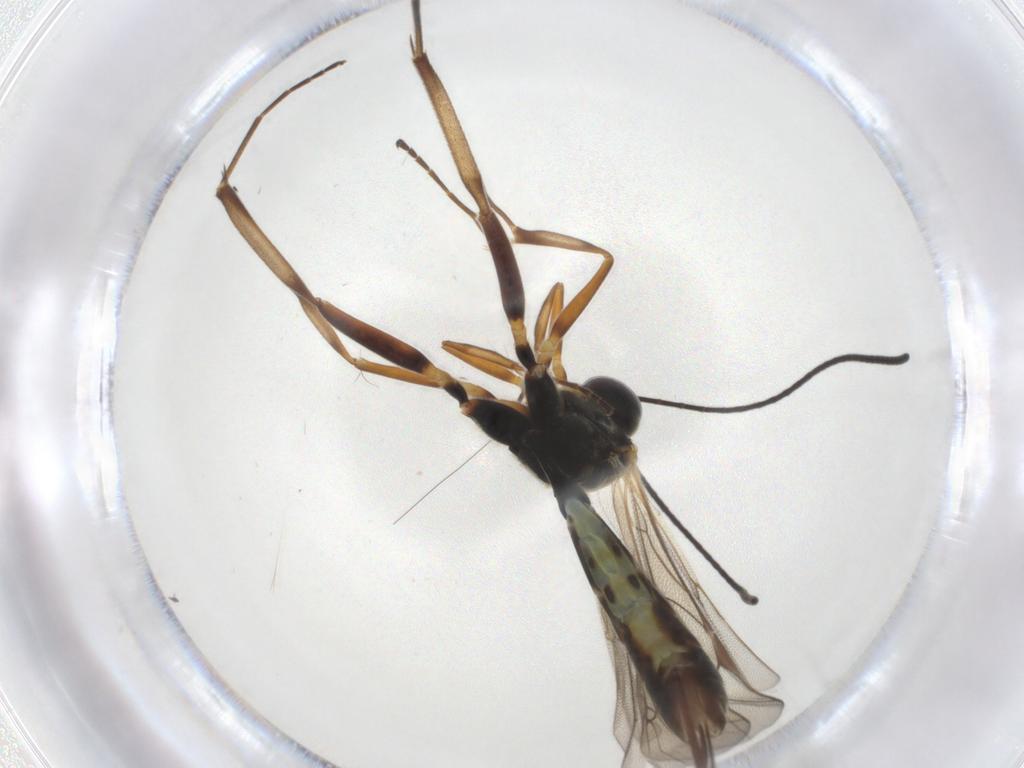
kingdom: Animalia
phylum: Arthropoda
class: Insecta
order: Hymenoptera
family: Ichneumonidae
